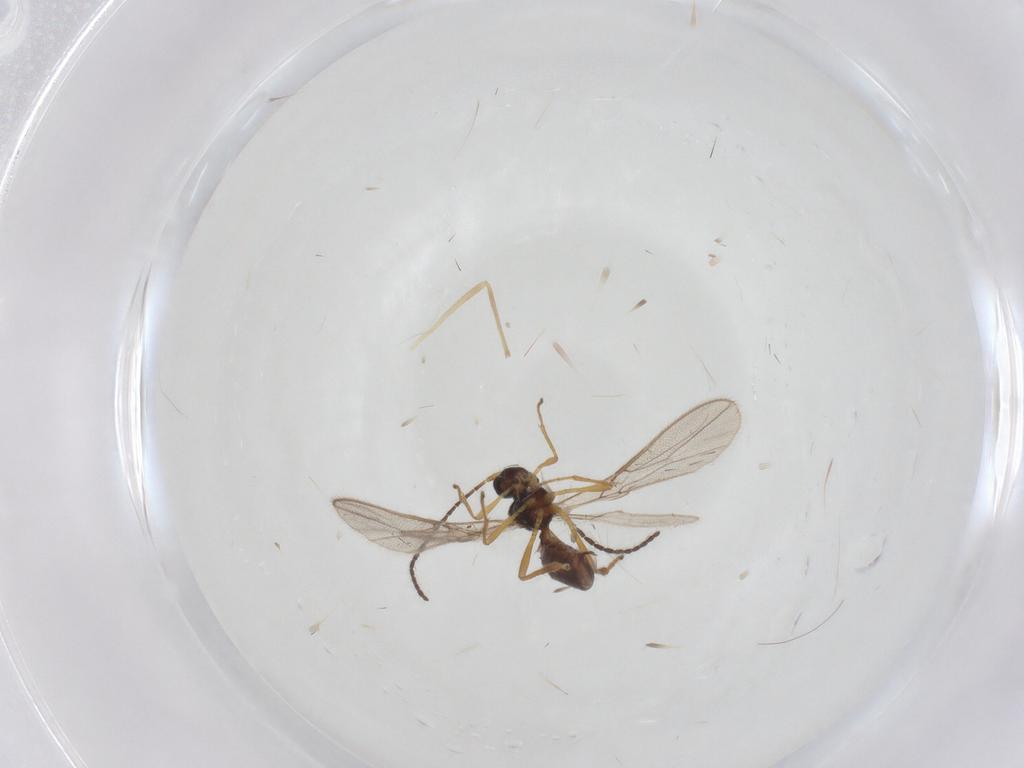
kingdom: Animalia
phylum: Arthropoda
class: Insecta
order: Hymenoptera
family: Braconidae
